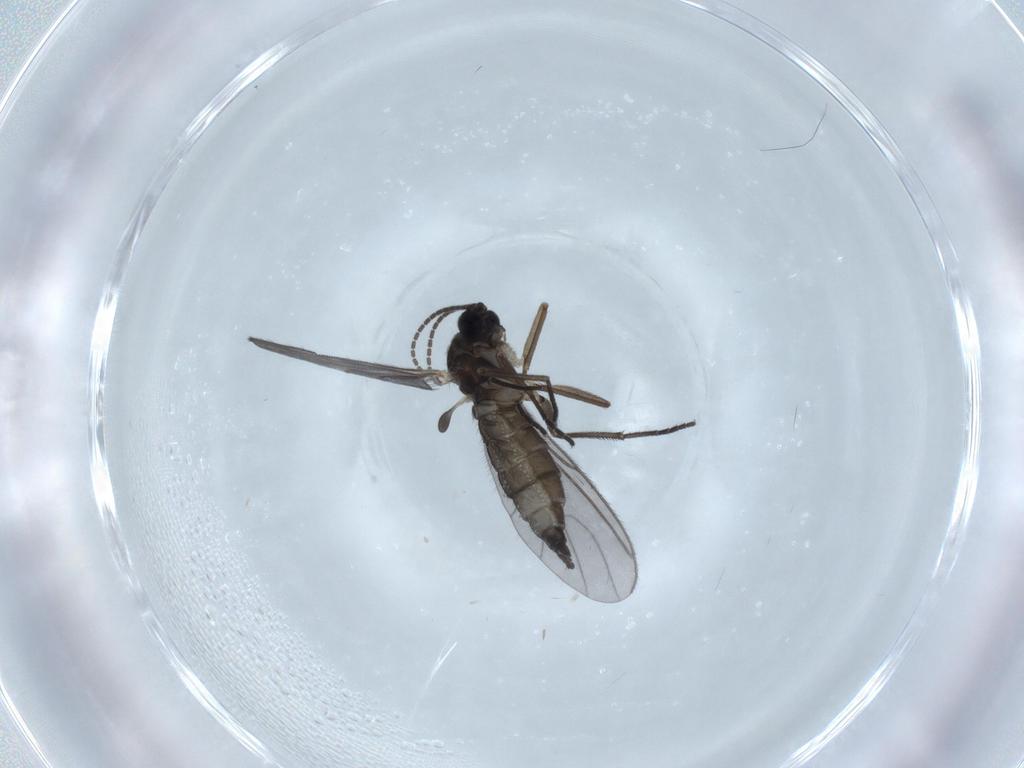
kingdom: Animalia
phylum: Arthropoda
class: Insecta
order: Diptera
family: Sciaridae
